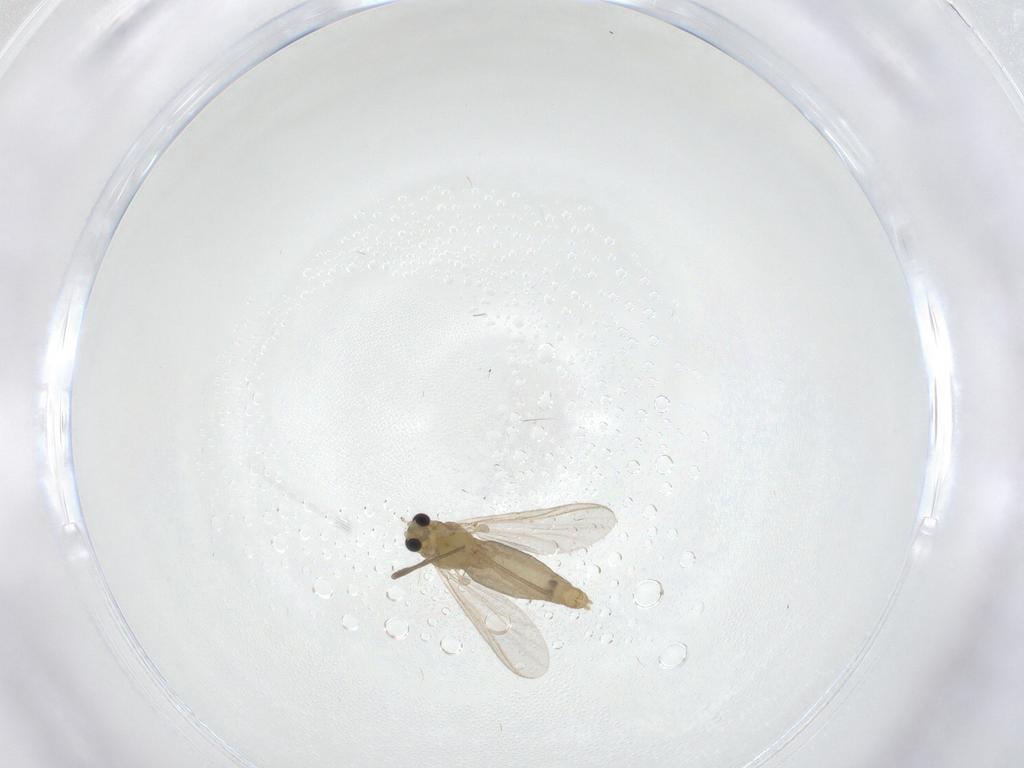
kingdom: Animalia
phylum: Arthropoda
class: Insecta
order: Diptera
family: Chironomidae
